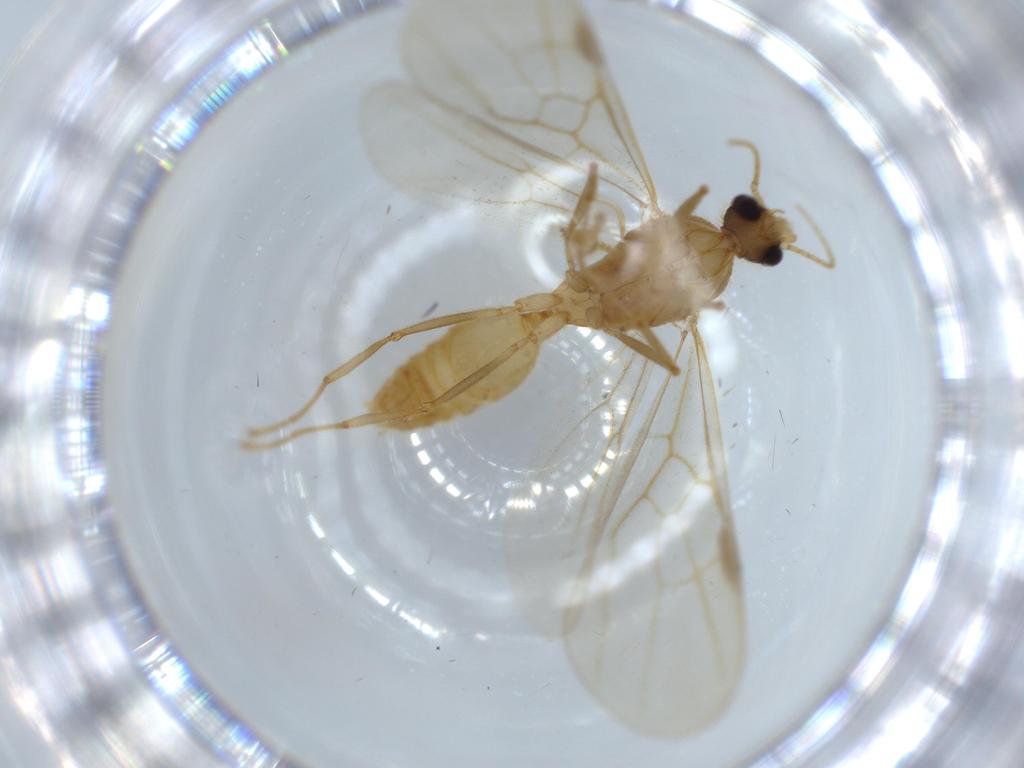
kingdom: Animalia
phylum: Arthropoda
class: Insecta
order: Hymenoptera
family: Formicidae
